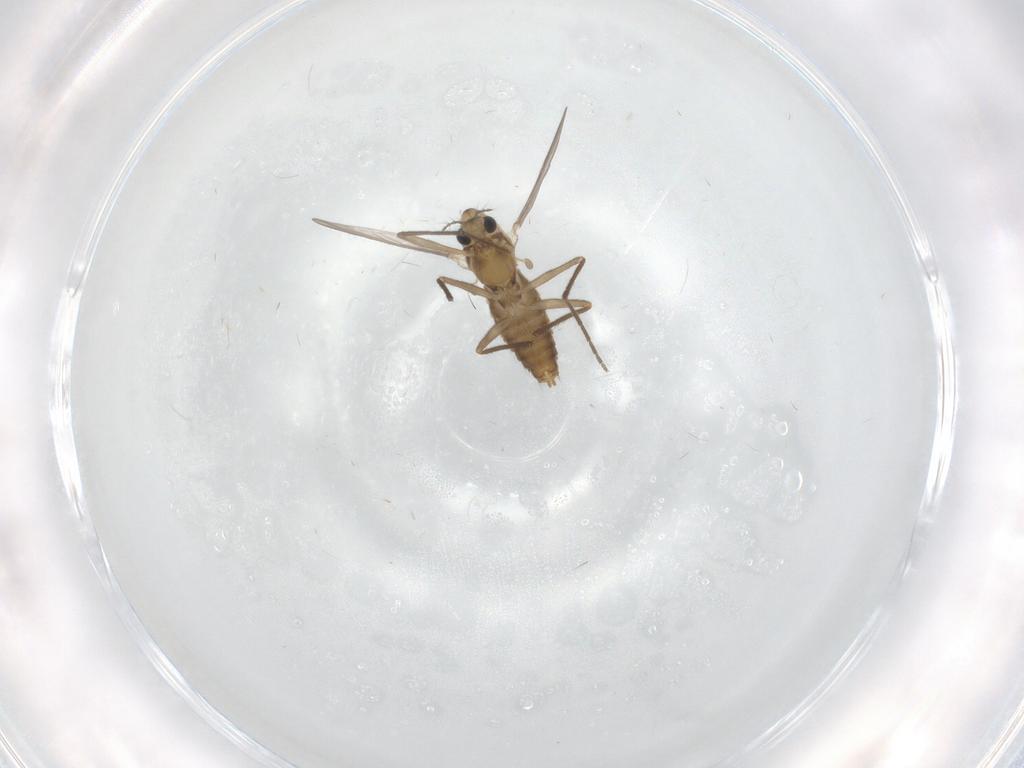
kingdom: Animalia
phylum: Arthropoda
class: Insecta
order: Diptera
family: Chironomidae
